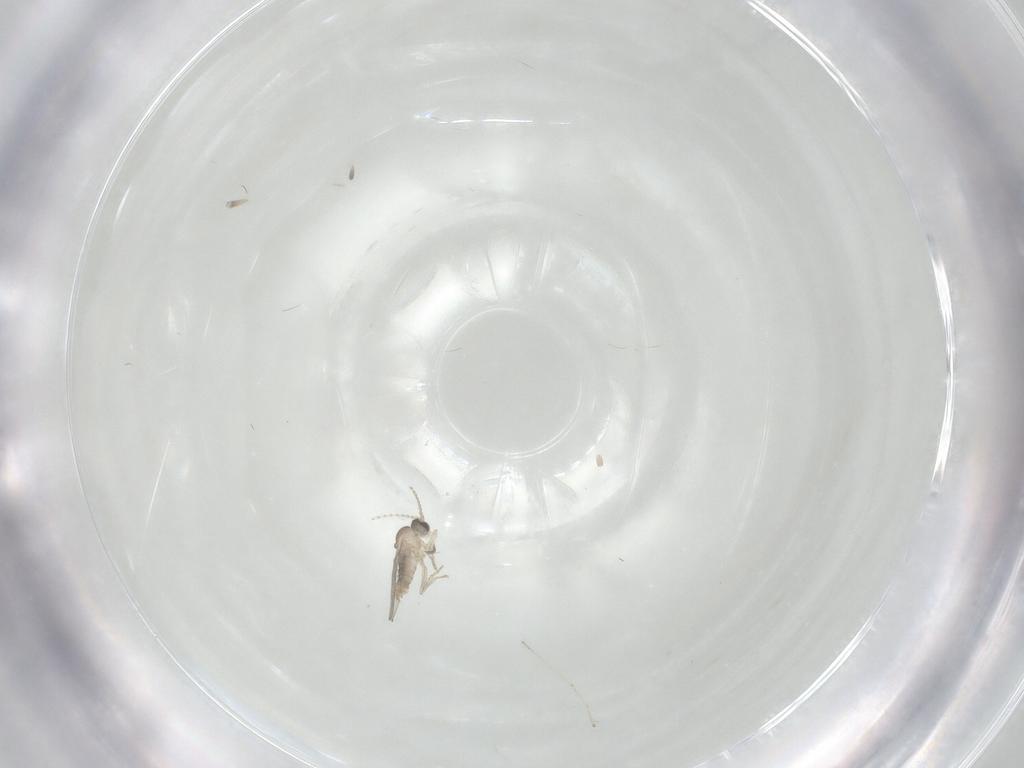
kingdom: Animalia
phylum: Arthropoda
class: Insecta
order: Diptera
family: Cecidomyiidae
